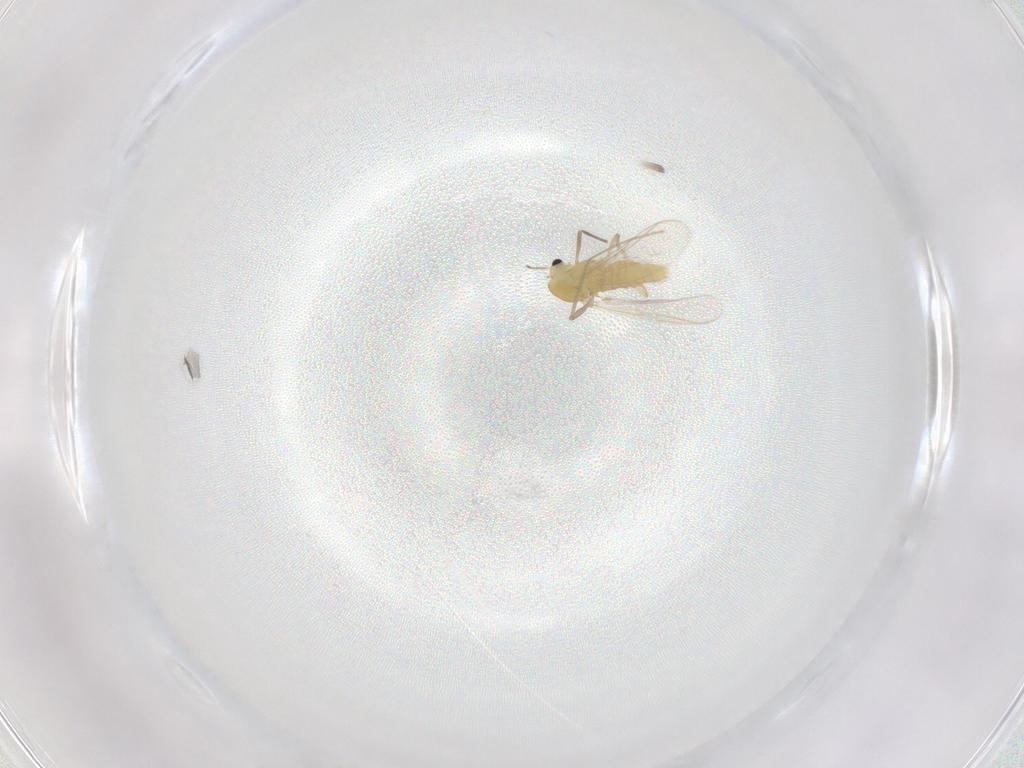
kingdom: Animalia
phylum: Arthropoda
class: Insecta
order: Diptera
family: Chironomidae
